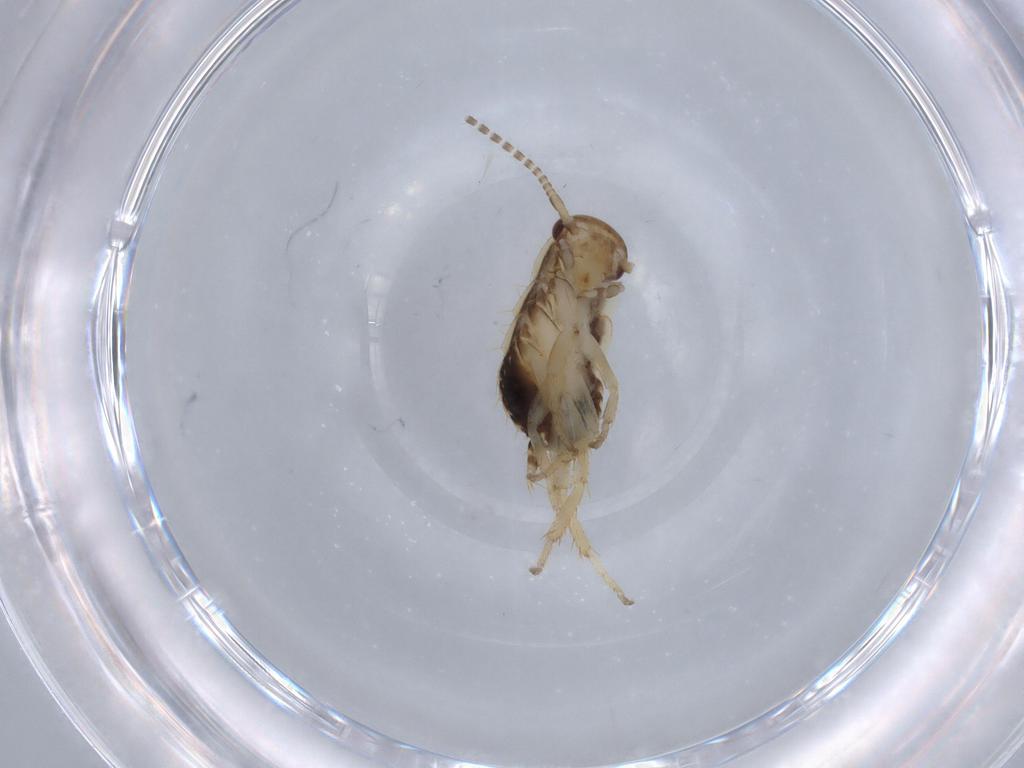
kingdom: Animalia
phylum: Arthropoda
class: Insecta
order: Blattodea
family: Ectobiidae
